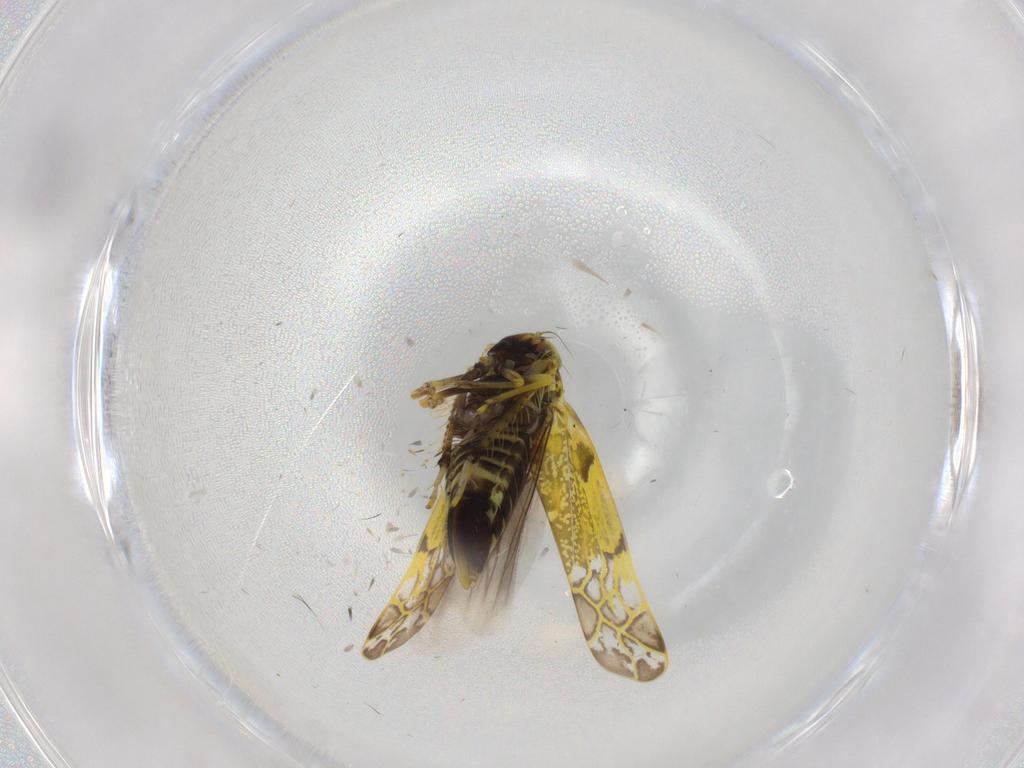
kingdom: Animalia
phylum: Arthropoda
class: Insecta
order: Hemiptera
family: Cicadellidae
